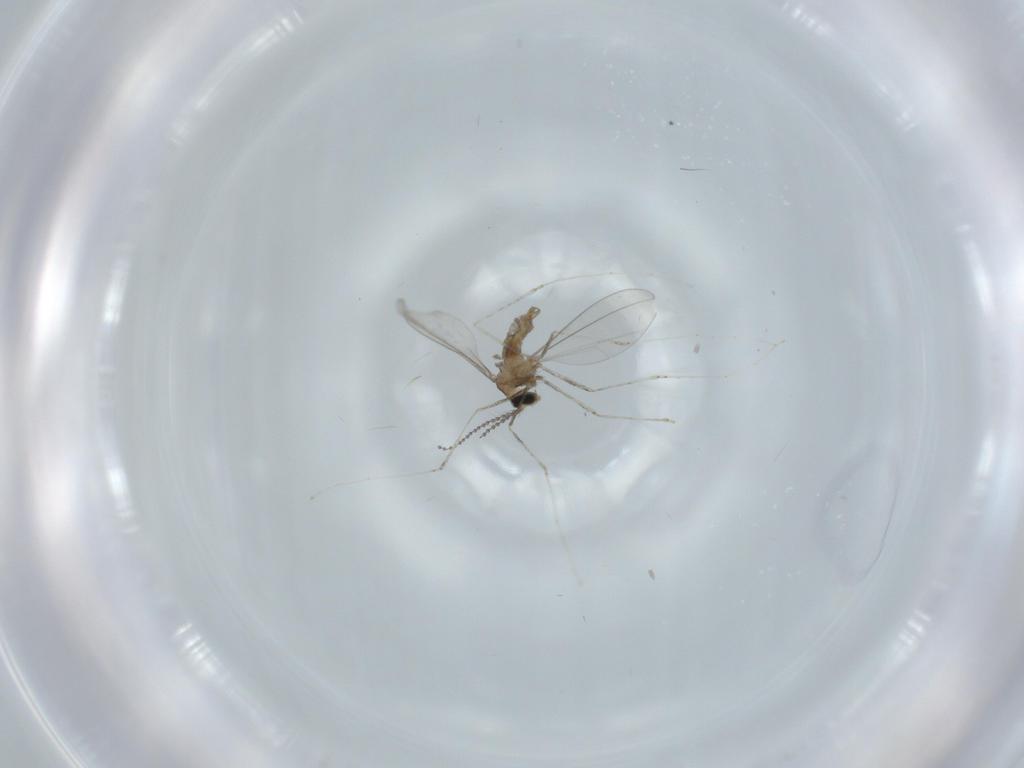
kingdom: Animalia
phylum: Arthropoda
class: Insecta
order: Diptera
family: Cecidomyiidae
